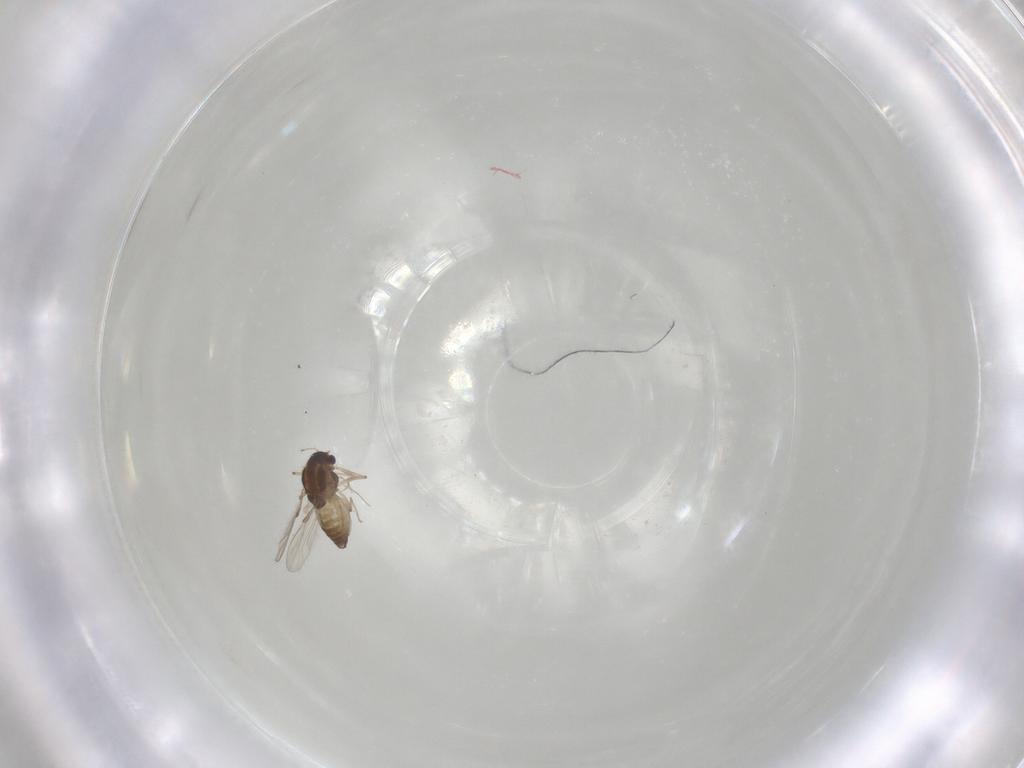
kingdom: Animalia
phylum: Arthropoda
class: Insecta
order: Diptera
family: Chironomidae
